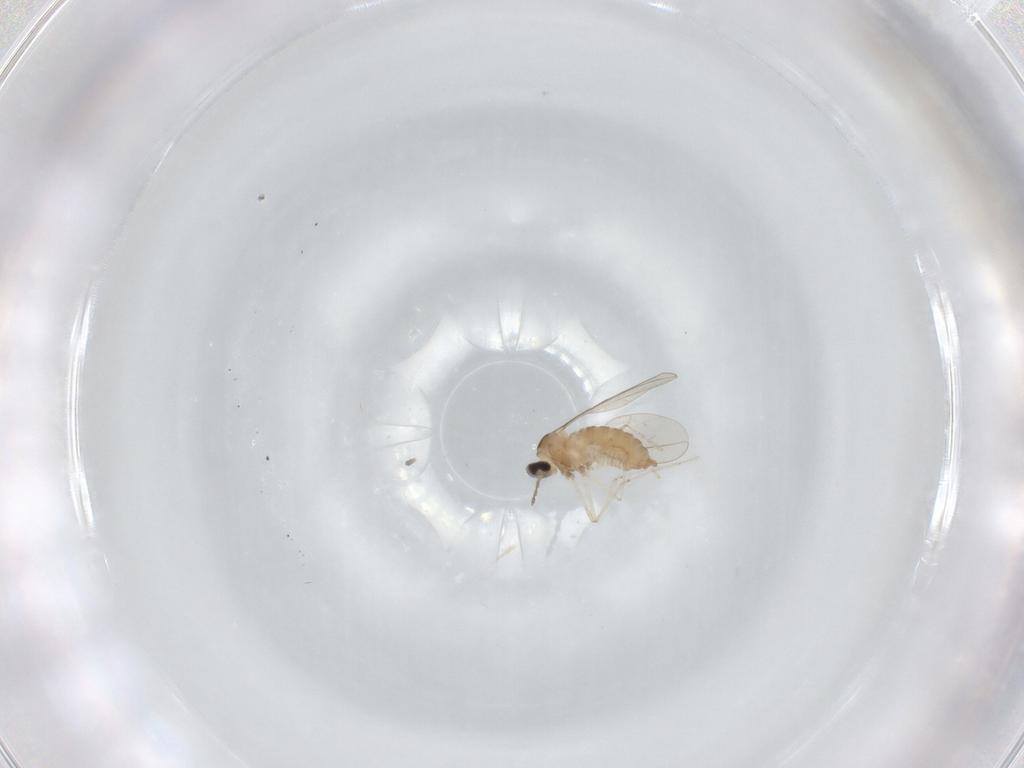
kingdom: Animalia
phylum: Arthropoda
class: Insecta
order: Diptera
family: Cecidomyiidae
